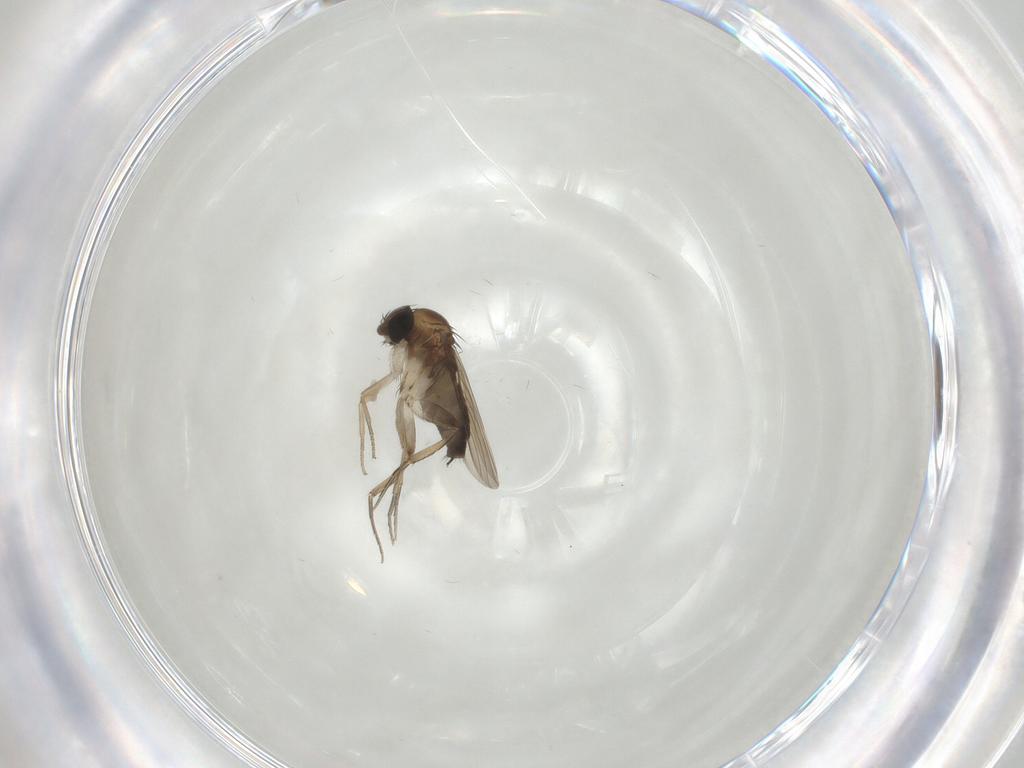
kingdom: Animalia
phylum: Arthropoda
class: Insecta
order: Diptera
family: Phoridae
